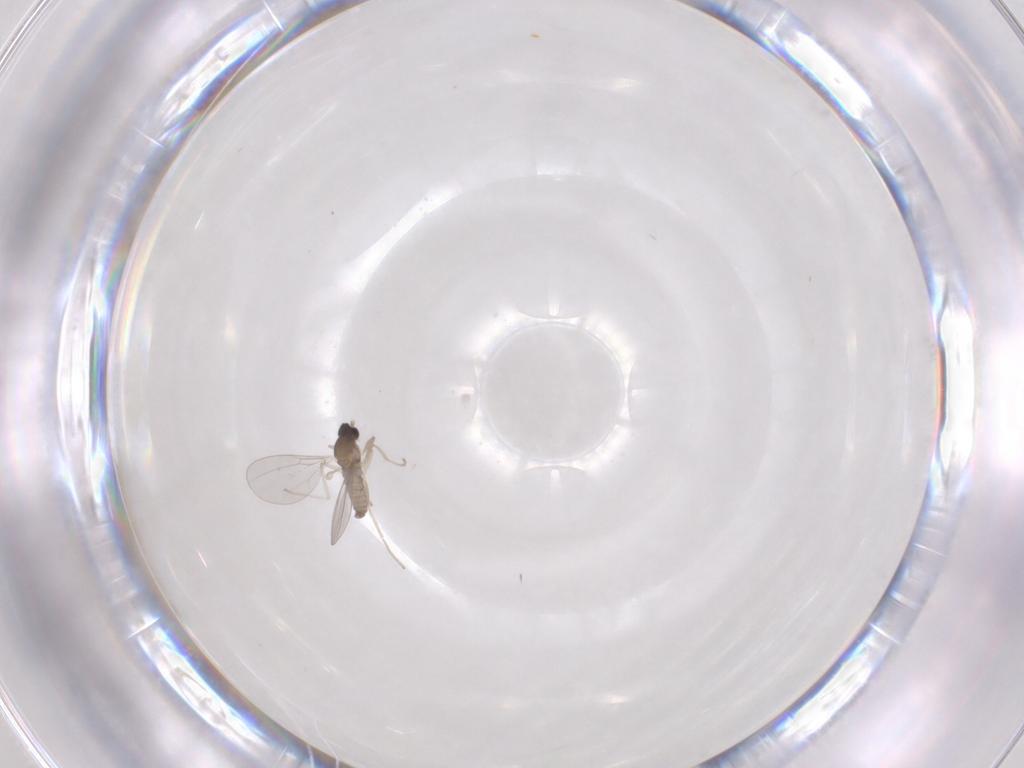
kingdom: Animalia
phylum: Arthropoda
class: Insecta
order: Diptera
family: Cecidomyiidae
